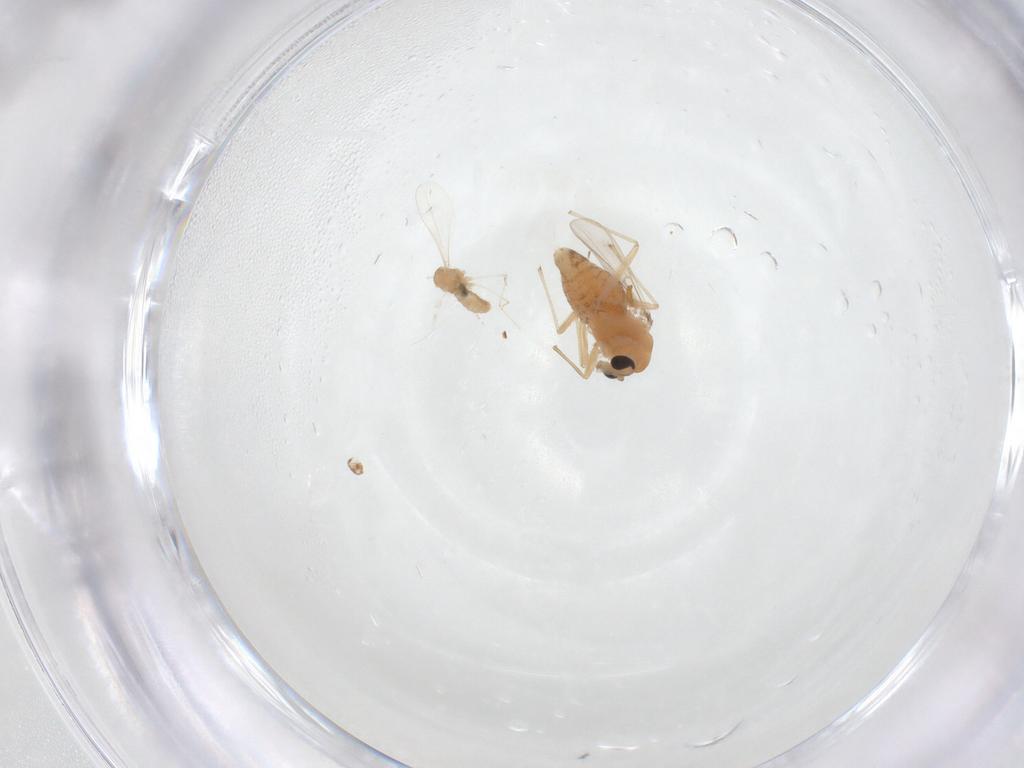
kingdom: Animalia
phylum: Arthropoda
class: Insecta
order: Diptera
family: Chironomidae
